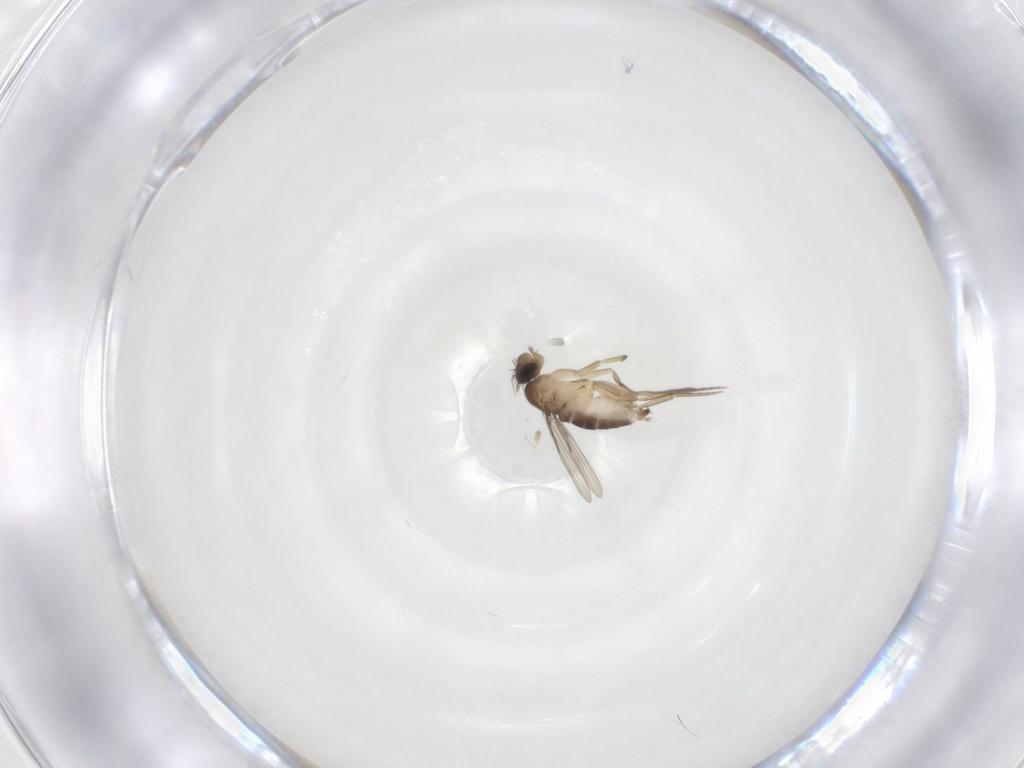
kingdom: Animalia
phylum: Arthropoda
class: Insecta
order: Diptera
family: Phoridae
